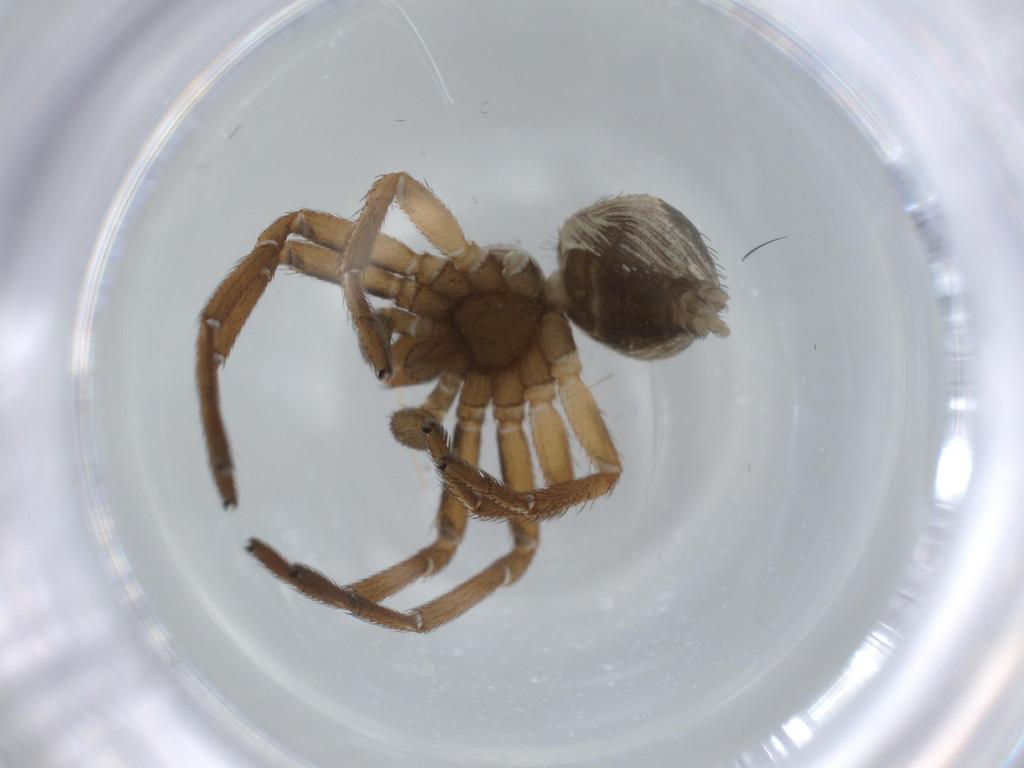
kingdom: Animalia
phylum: Arthropoda
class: Arachnida
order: Araneae
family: Thomisidae
